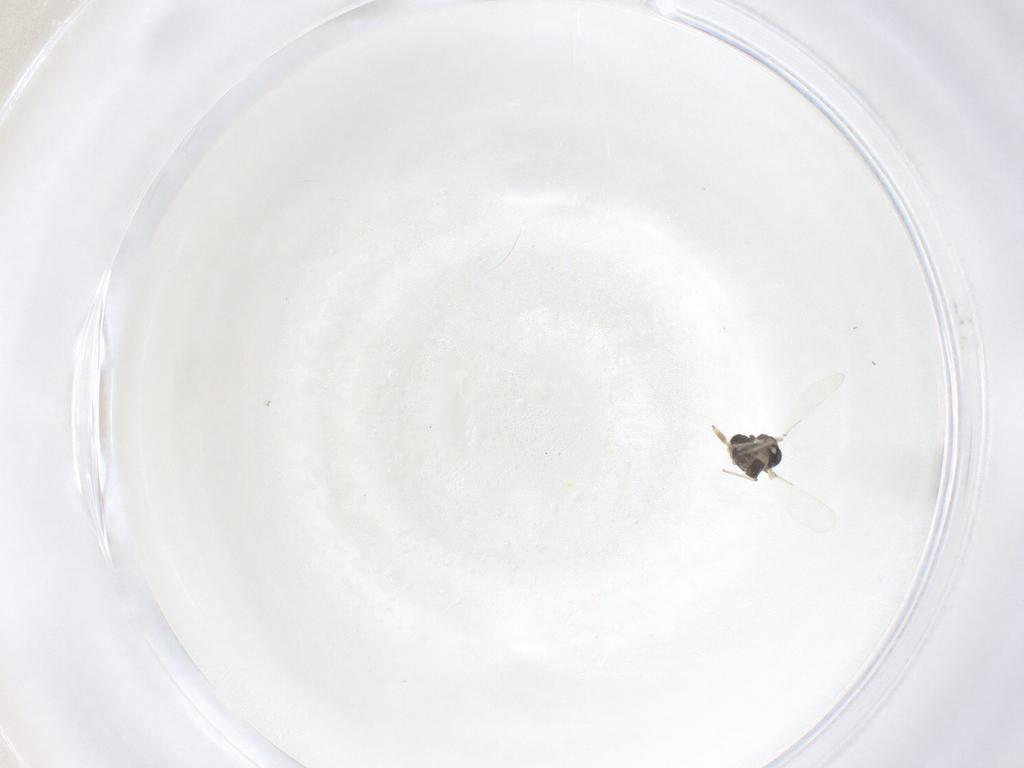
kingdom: Animalia
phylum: Arthropoda
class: Insecta
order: Diptera
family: Chironomidae
